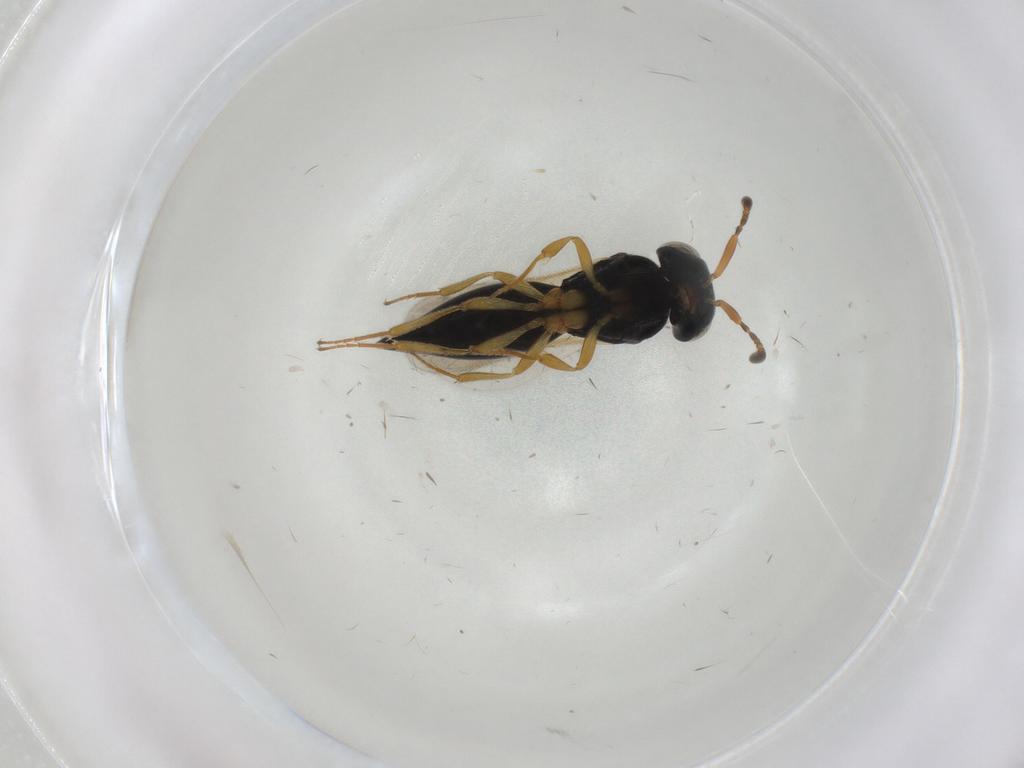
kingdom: Animalia
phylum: Arthropoda
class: Insecta
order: Hymenoptera
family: Scelionidae
